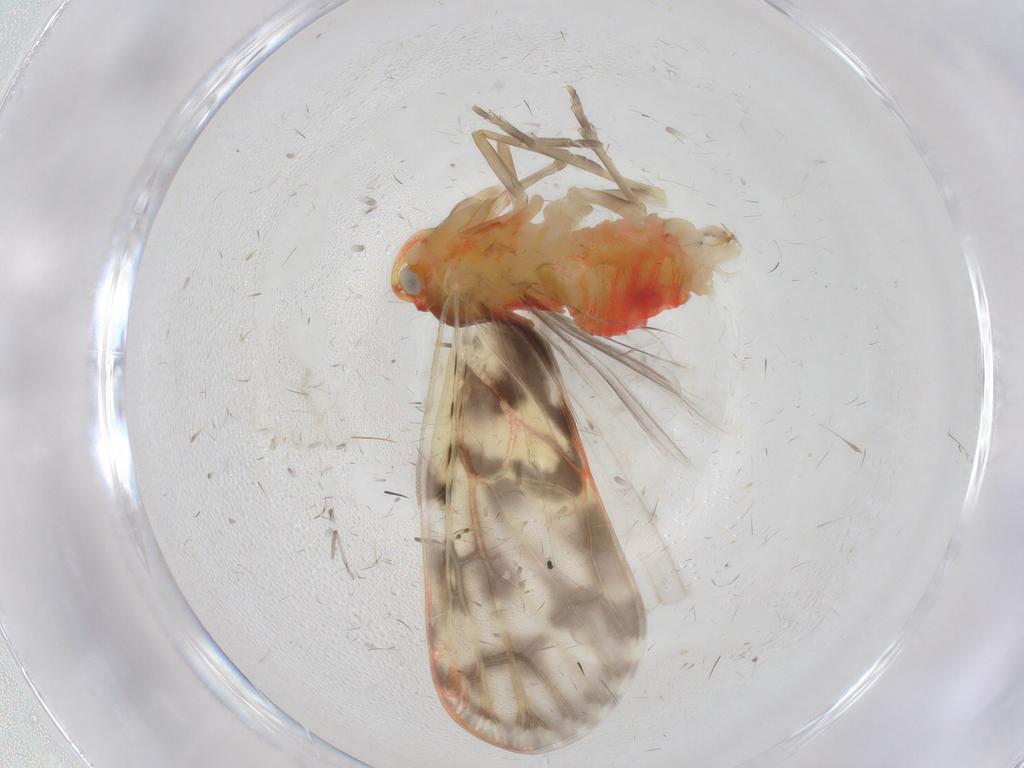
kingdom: Animalia
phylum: Arthropoda
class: Insecta
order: Hemiptera
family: Derbidae
